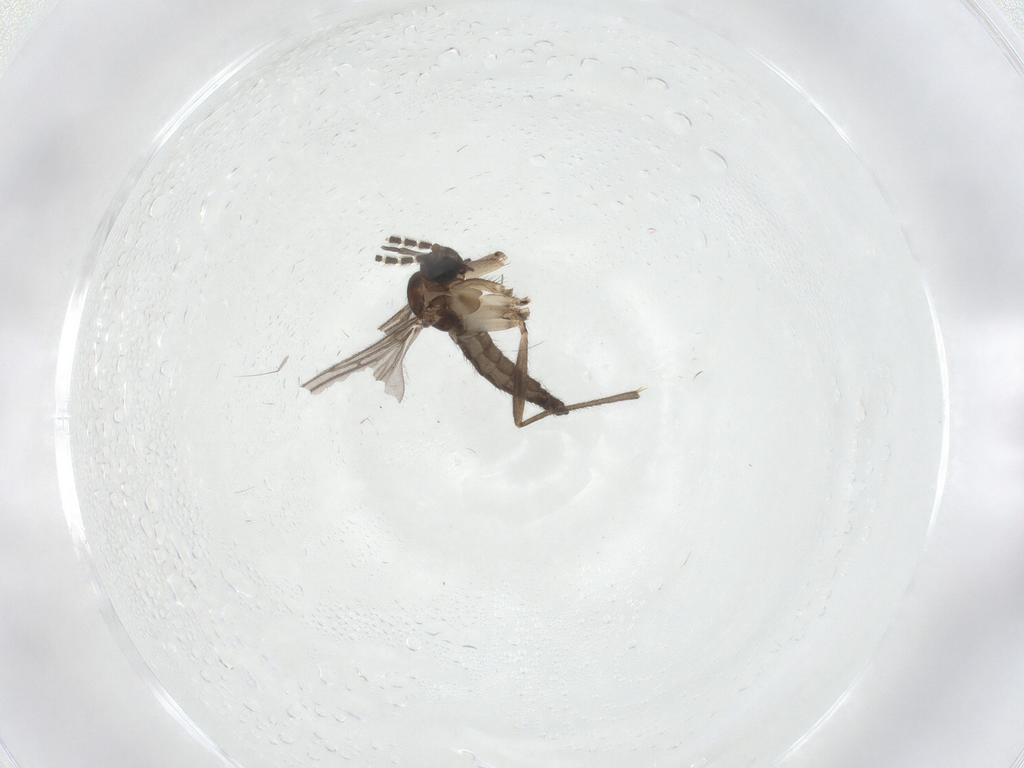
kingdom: Animalia
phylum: Arthropoda
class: Insecta
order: Diptera
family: Sciaridae
